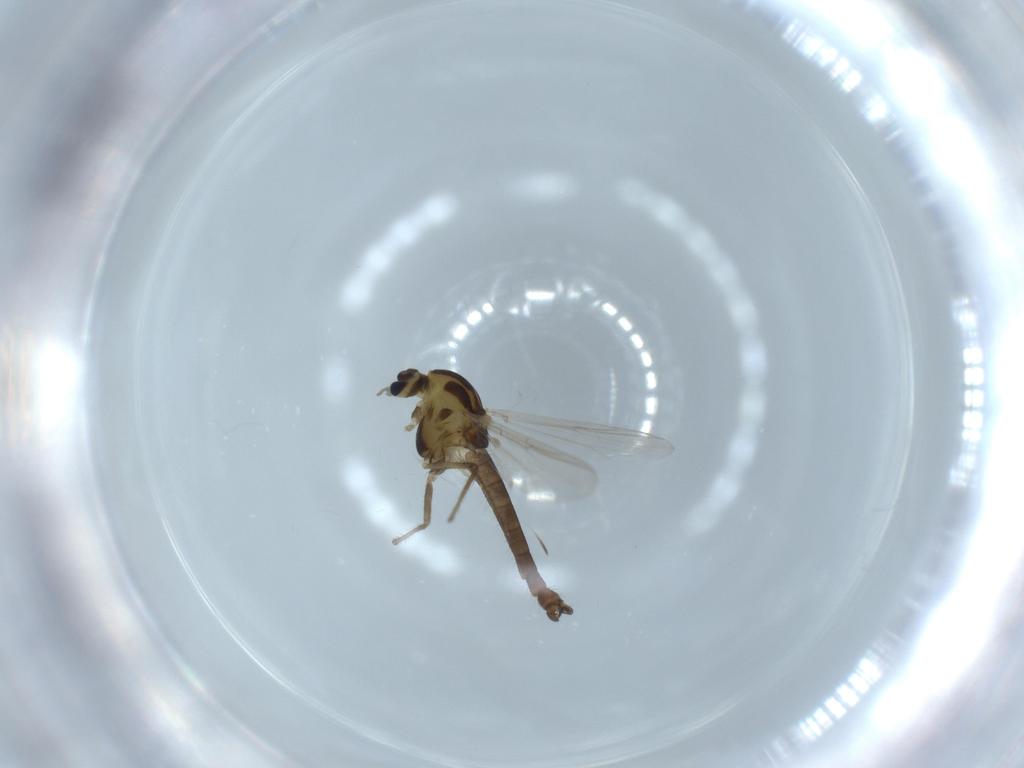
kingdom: Animalia
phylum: Arthropoda
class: Insecta
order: Diptera
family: Chironomidae
